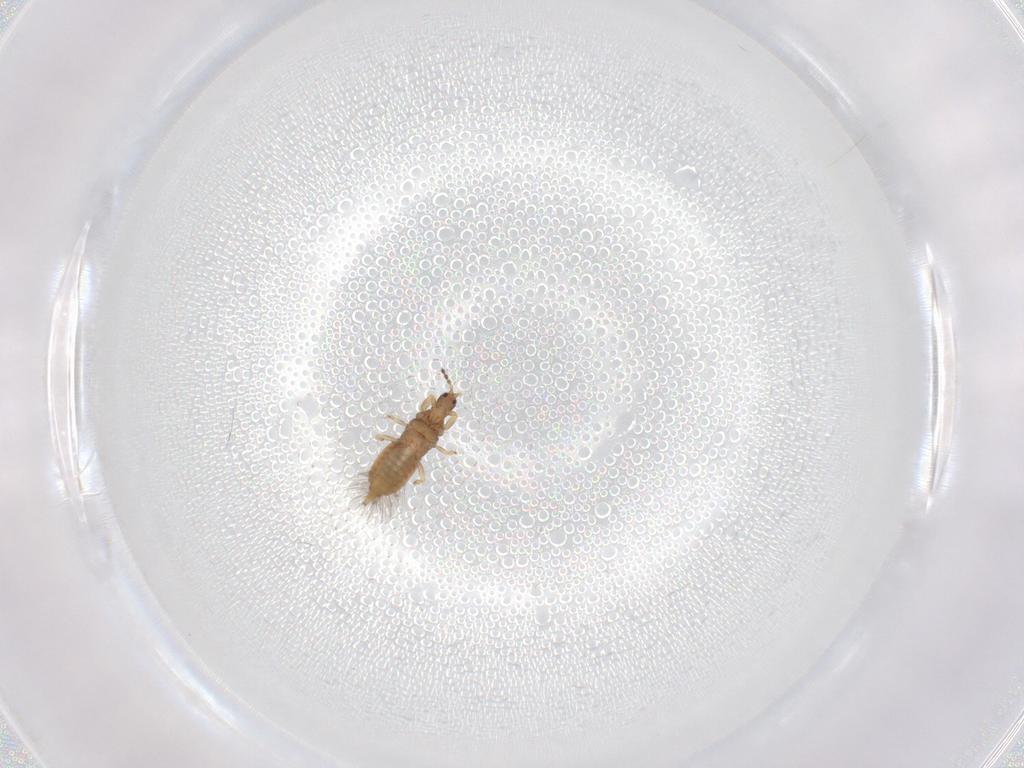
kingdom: Animalia
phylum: Arthropoda
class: Insecta
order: Thysanoptera
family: Phlaeothripidae
